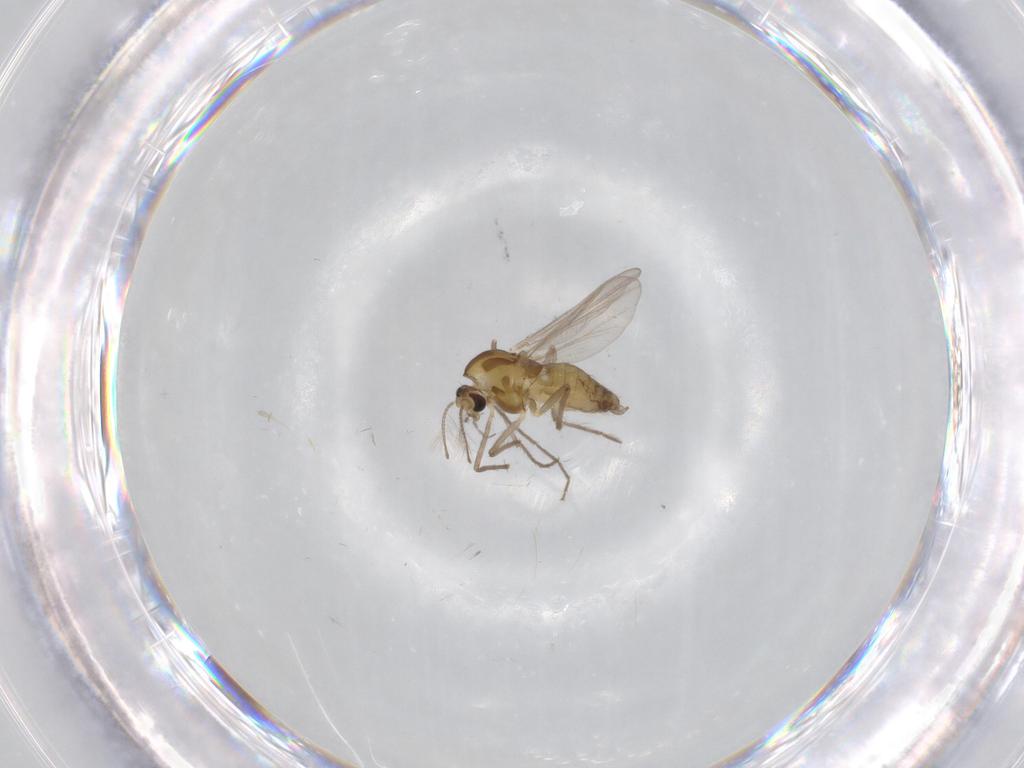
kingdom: Animalia
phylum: Arthropoda
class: Insecta
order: Diptera
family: Chironomidae
